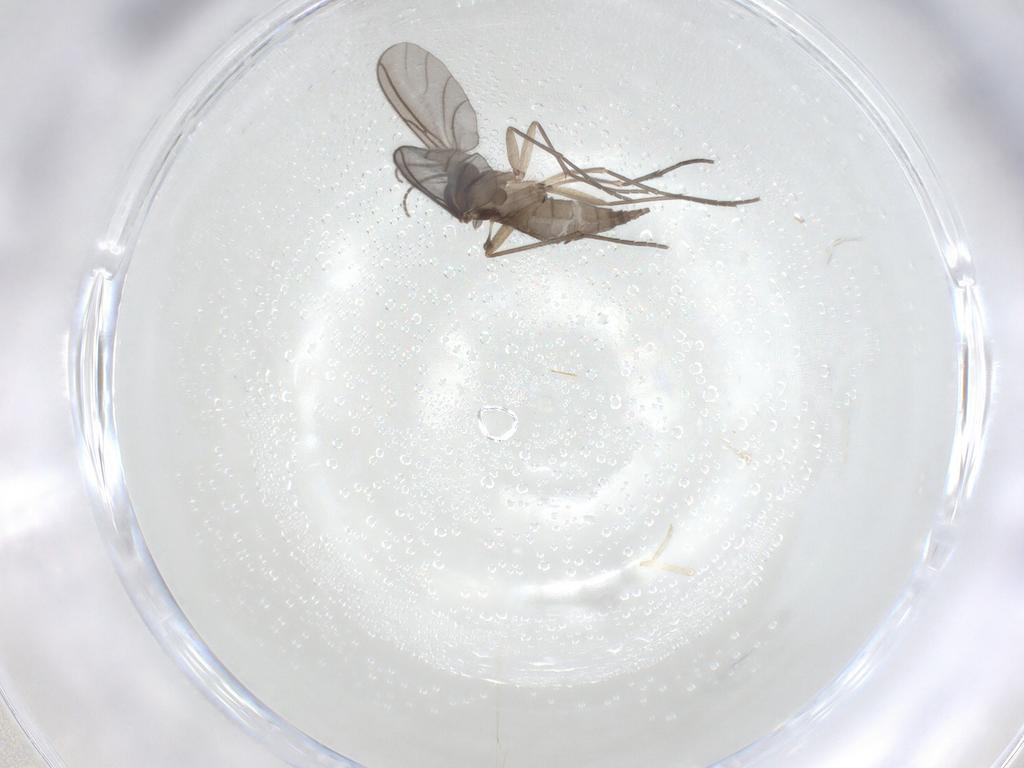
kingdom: Animalia
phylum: Arthropoda
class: Insecta
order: Diptera
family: Sciaridae
